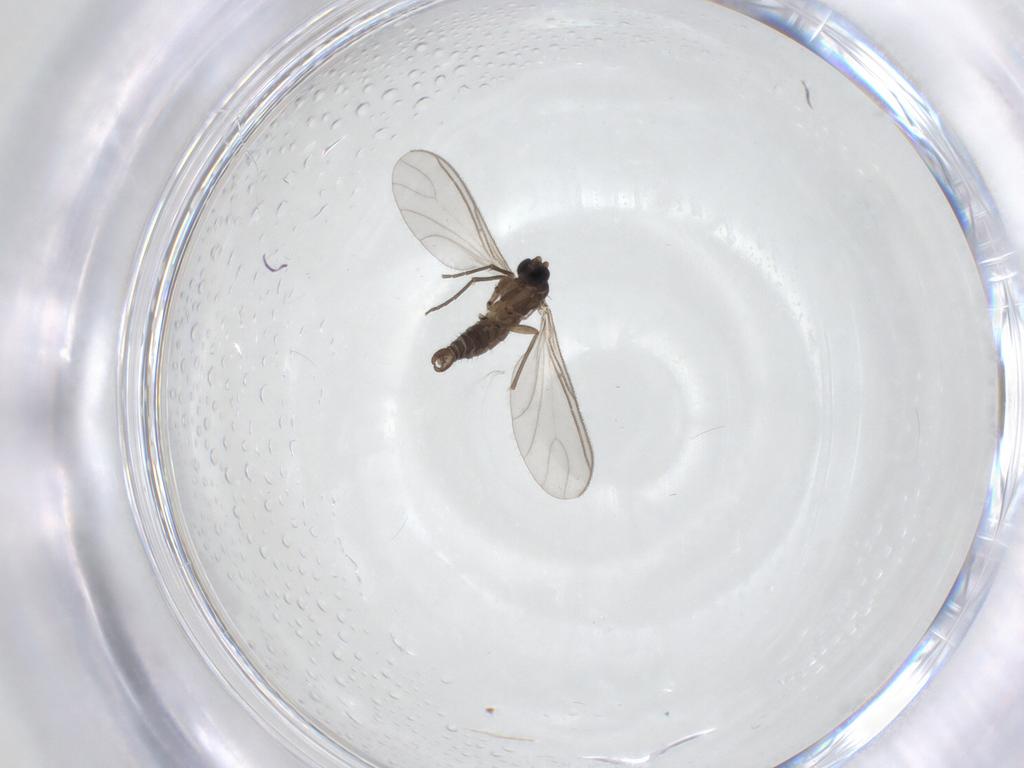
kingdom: Animalia
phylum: Arthropoda
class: Insecta
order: Diptera
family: Sciaridae
